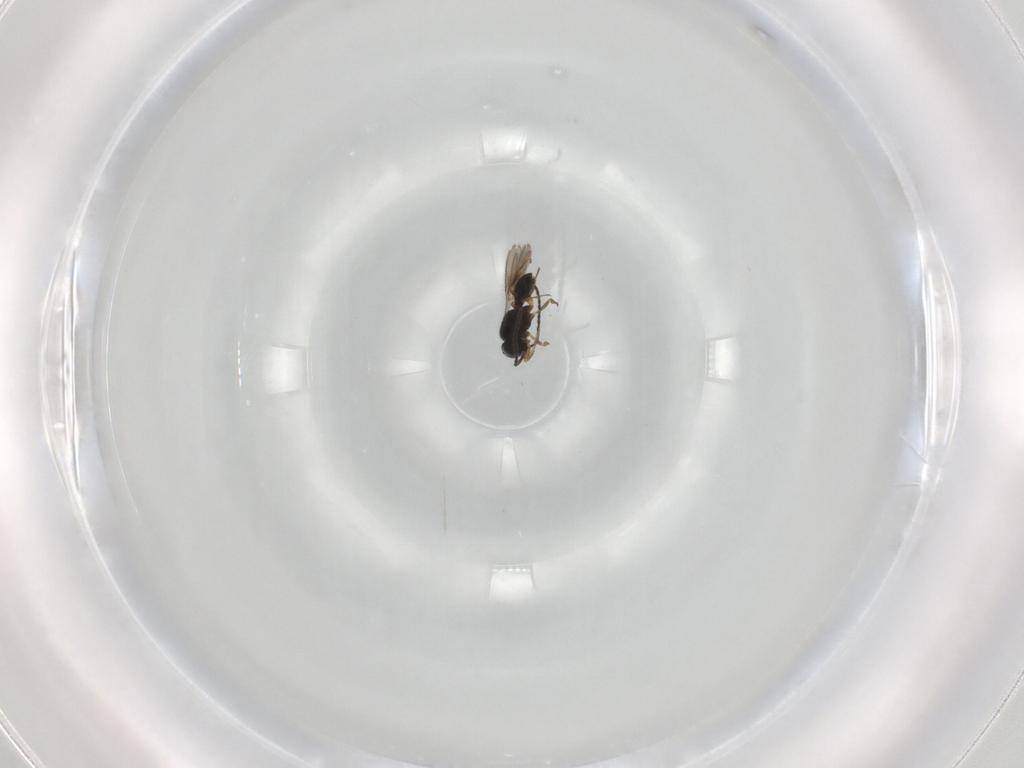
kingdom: Animalia
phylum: Arthropoda
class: Insecta
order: Hymenoptera
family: Scelionidae
